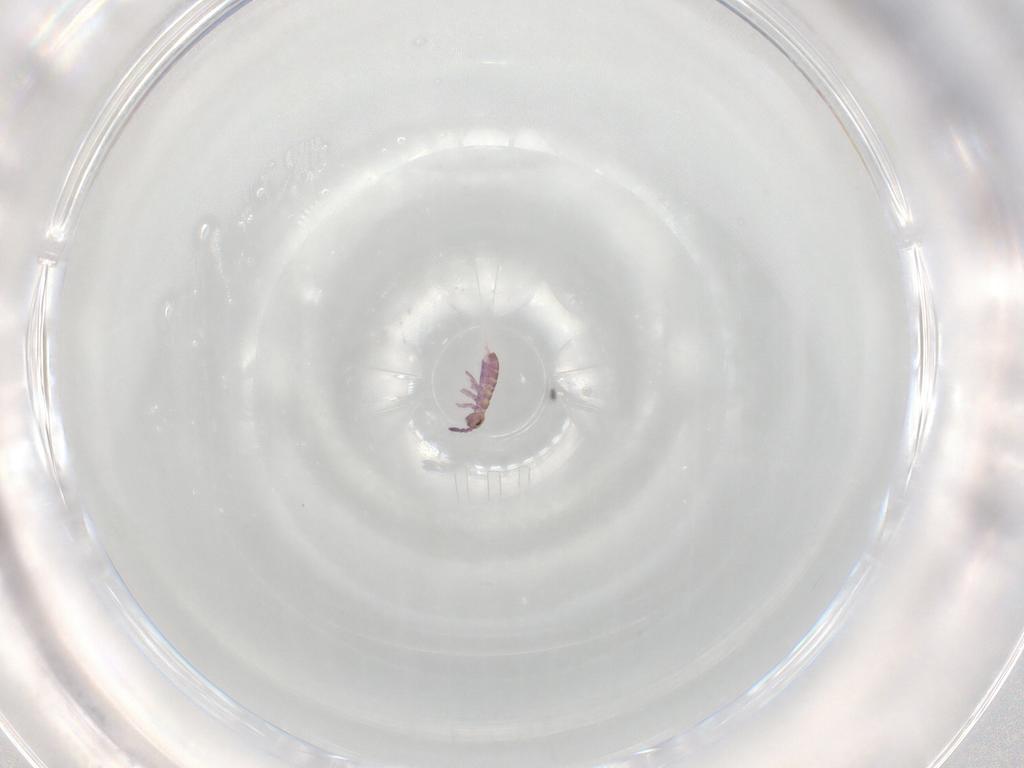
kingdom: Animalia
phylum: Arthropoda
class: Collembola
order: Entomobryomorpha
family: Isotomidae
